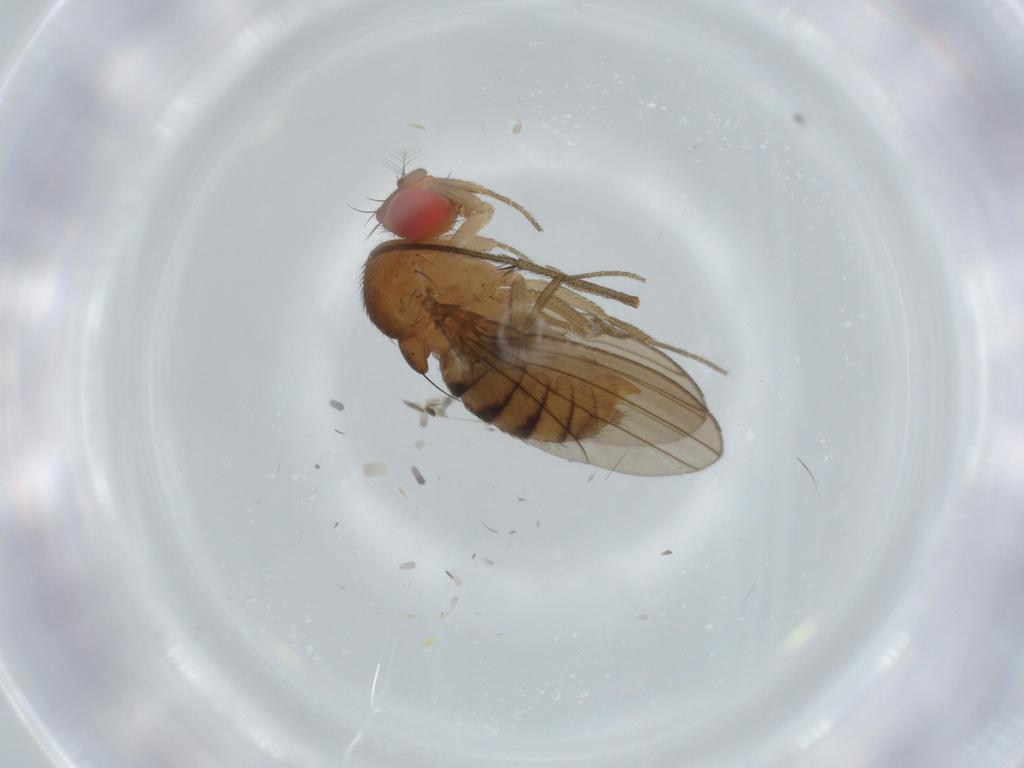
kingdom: Animalia
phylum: Arthropoda
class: Insecta
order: Diptera
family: Drosophilidae
